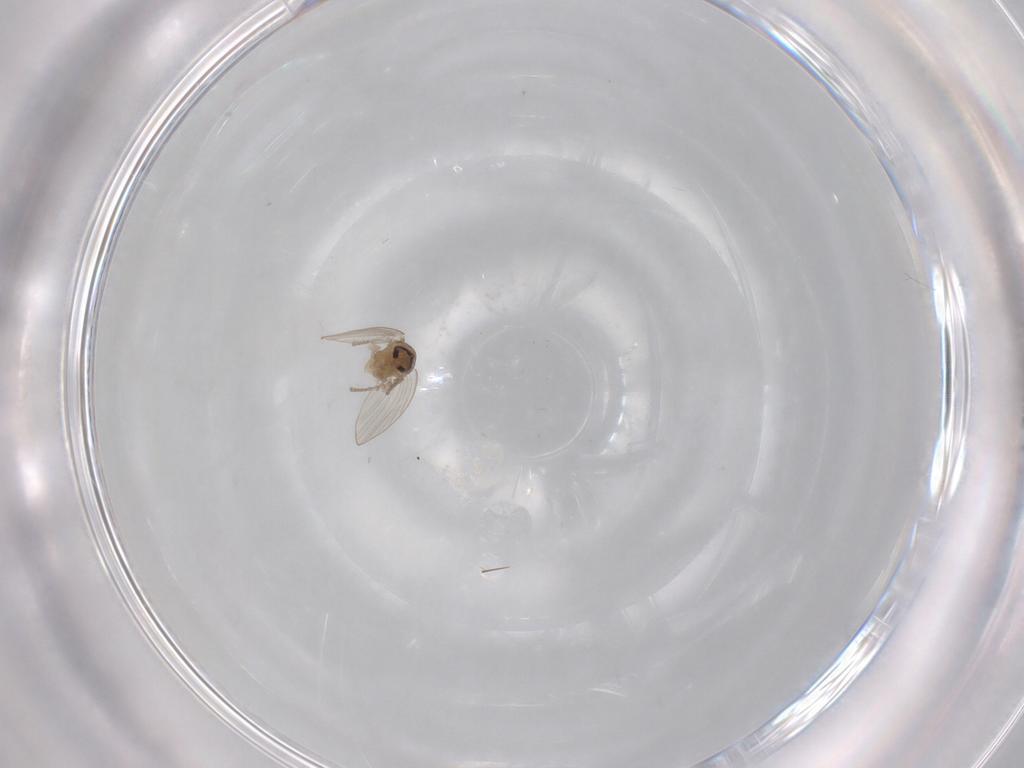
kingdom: Animalia
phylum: Arthropoda
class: Insecta
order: Diptera
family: Psychodidae
